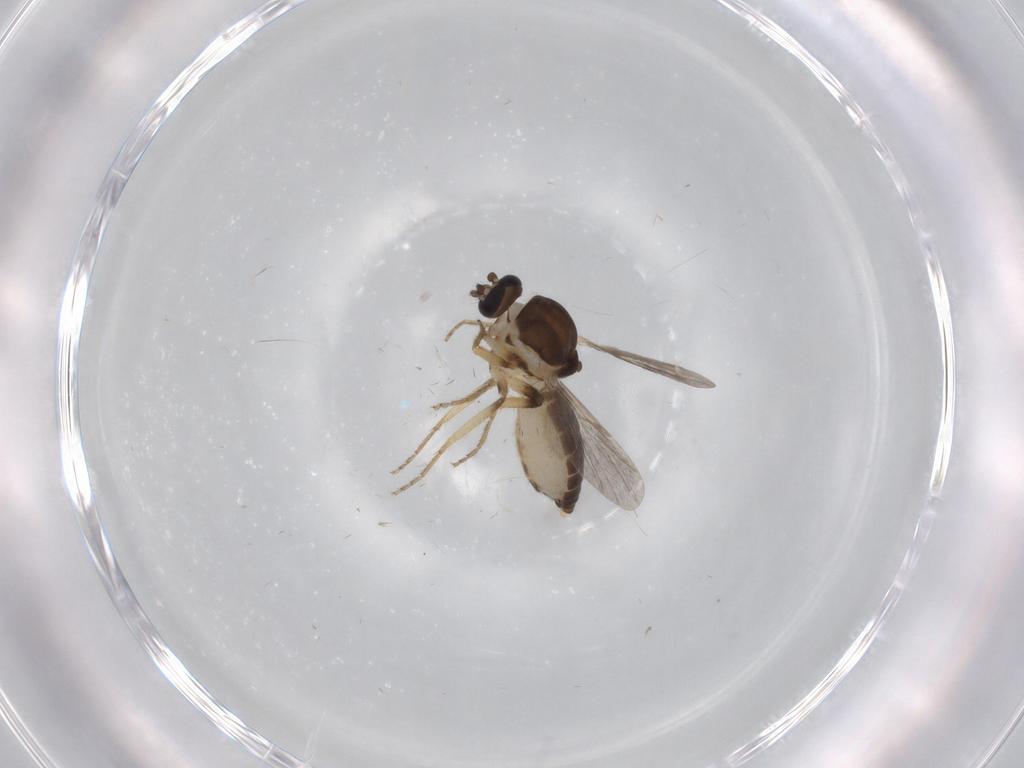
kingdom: Animalia
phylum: Arthropoda
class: Insecta
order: Diptera
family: Ceratopogonidae
